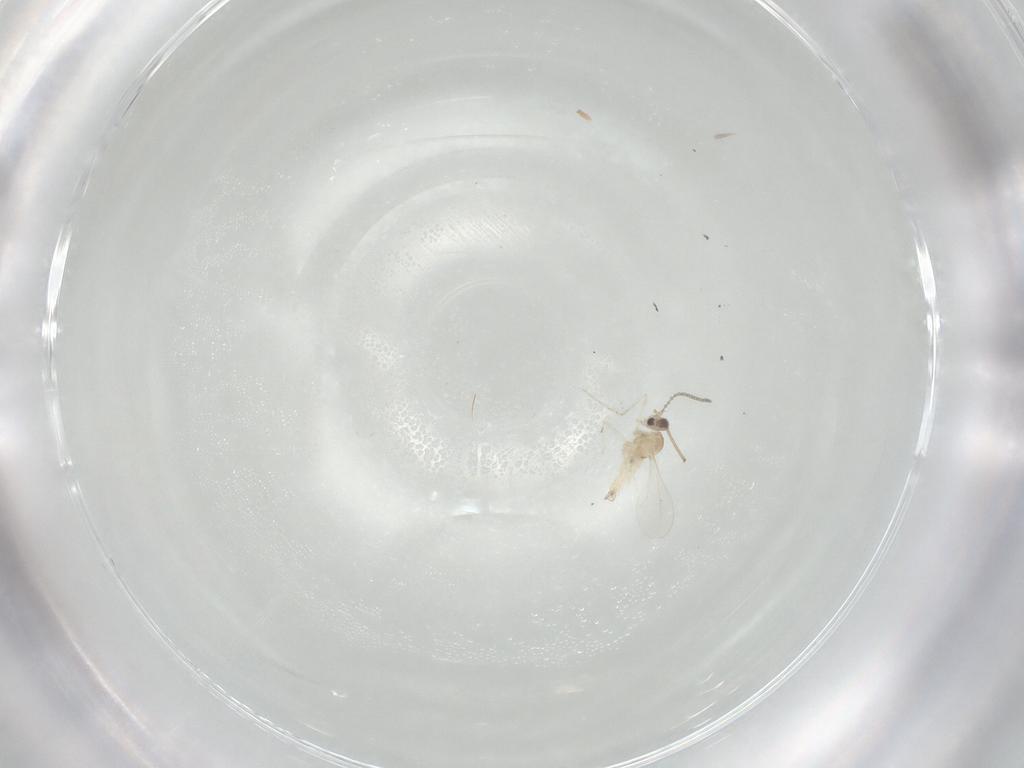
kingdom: Animalia
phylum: Arthropoda
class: Insecta
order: Diptera
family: Cecidomyiidae
